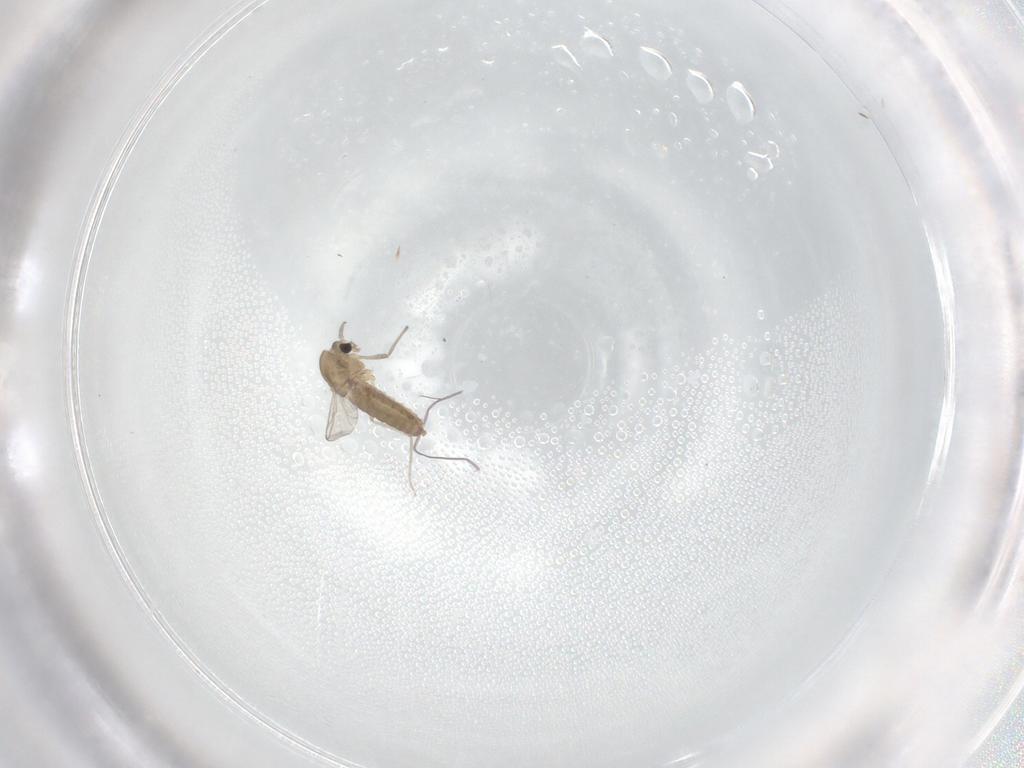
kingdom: Animalia
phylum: Arthropoda
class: Insecta
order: Diptera
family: Chironomidae
